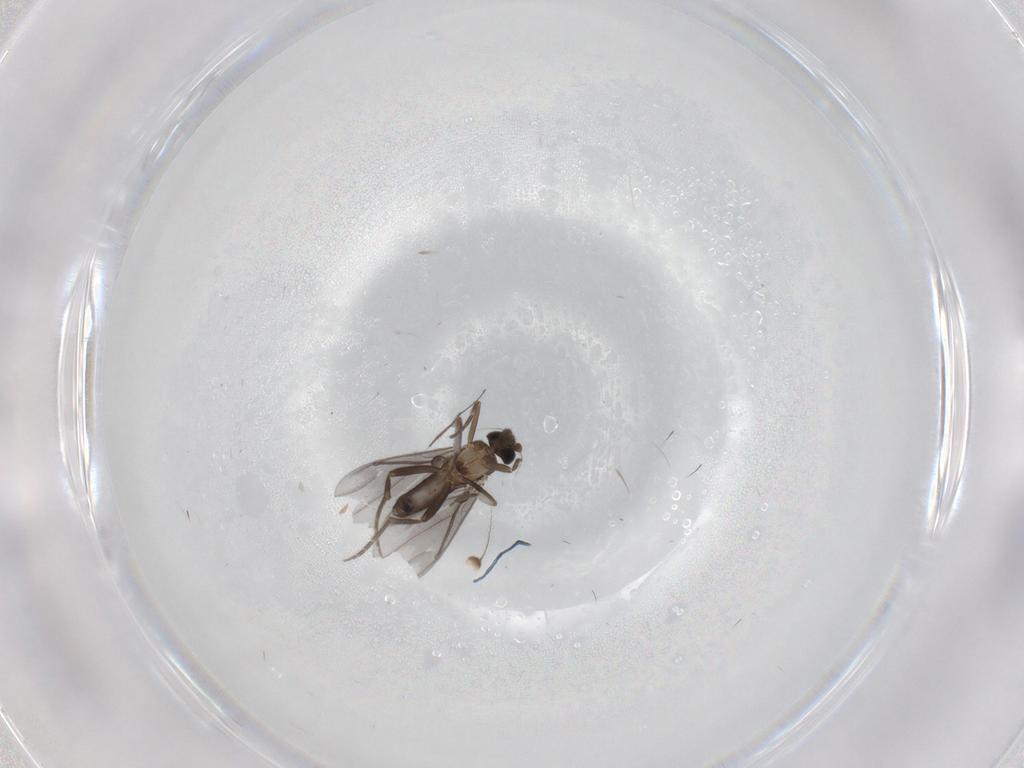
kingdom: Animalia
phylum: Arthropoda
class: Insecta
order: Diptera
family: Clusiidae
